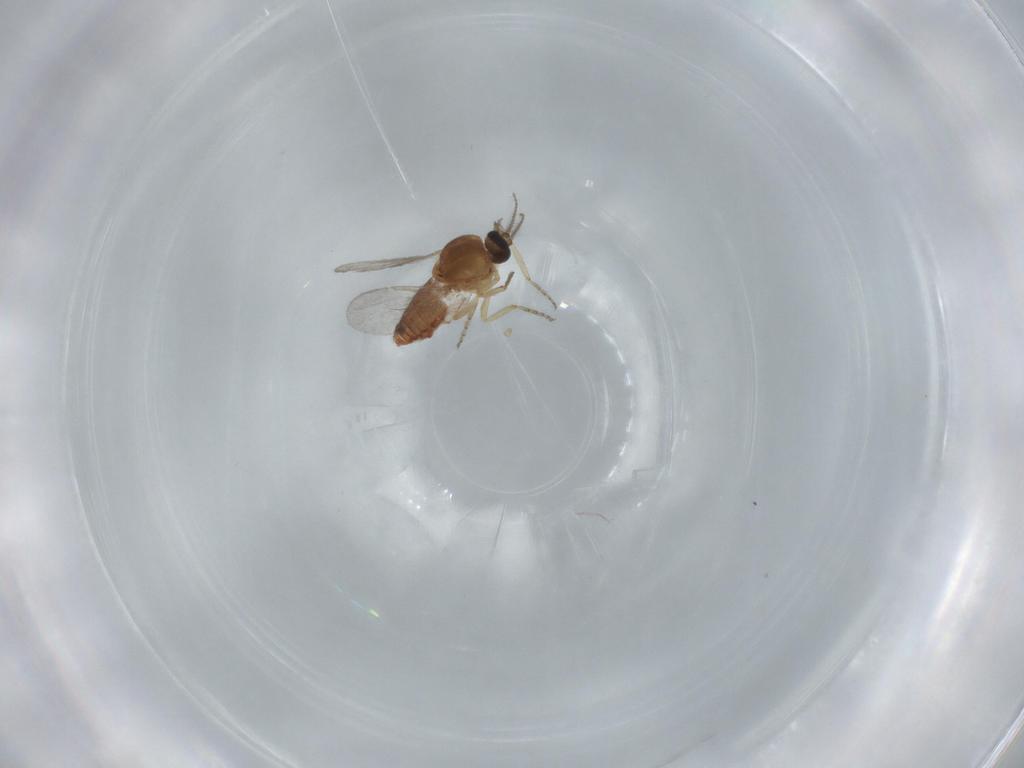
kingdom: Animalia
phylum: Arthropoda
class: Insecta
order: Diptera
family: Ceratopogonidae
